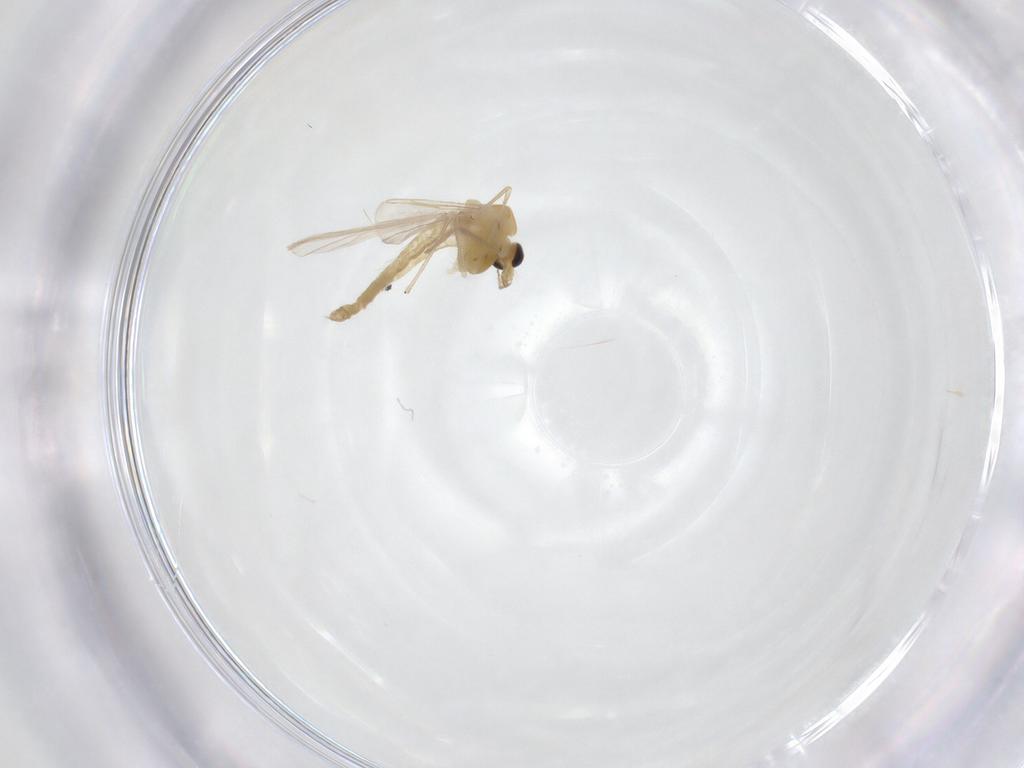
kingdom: Animalia
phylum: Arthropoda
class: Insecta
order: Diptera
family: Chironomidae
